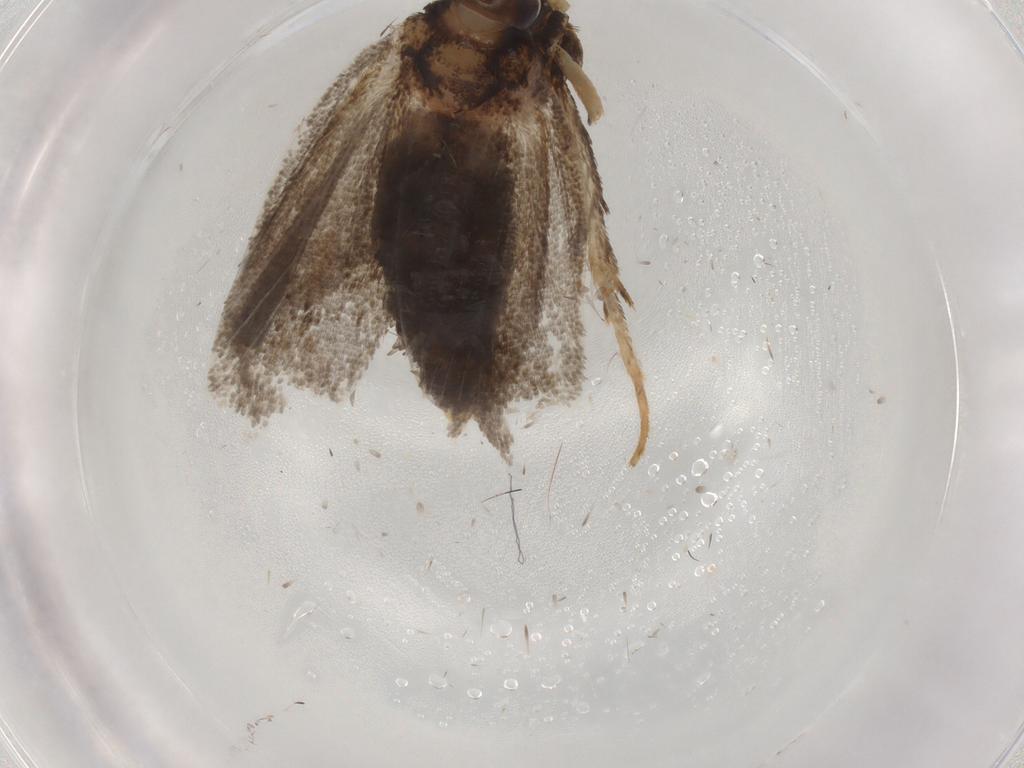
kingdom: Animalia
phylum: Arthropoda
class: Insecta
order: Lepidoptera
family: Lecithoceridae
